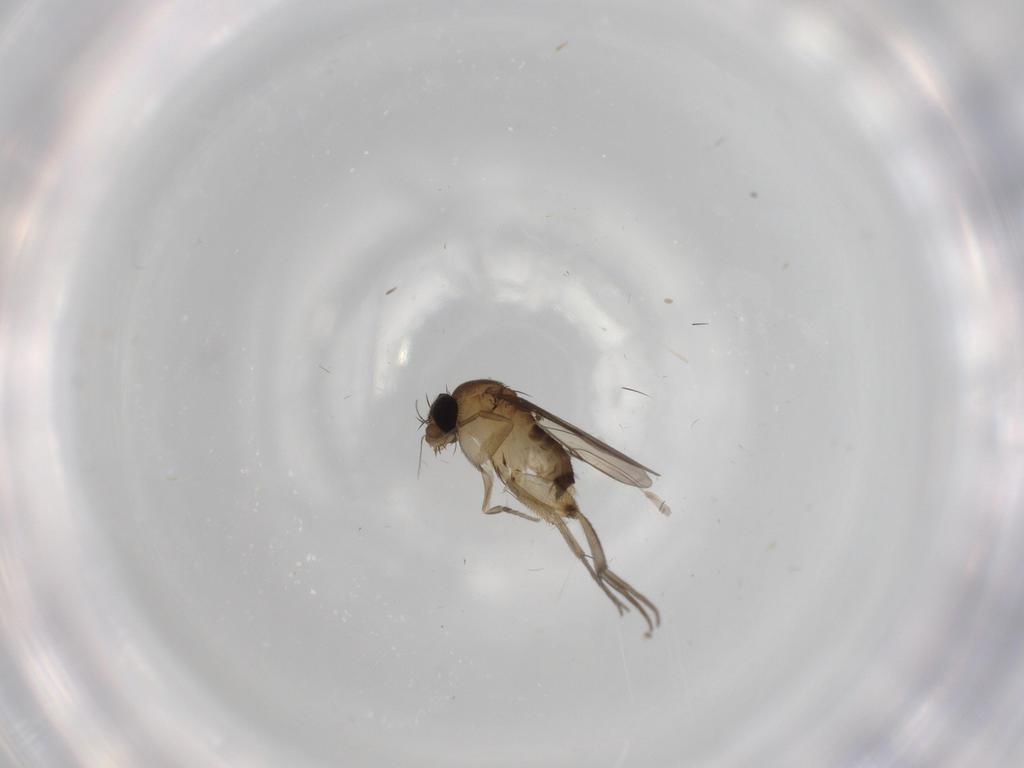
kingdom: Animalia
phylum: Arthropoda
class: Insecta
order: Diptera
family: Phoridae
